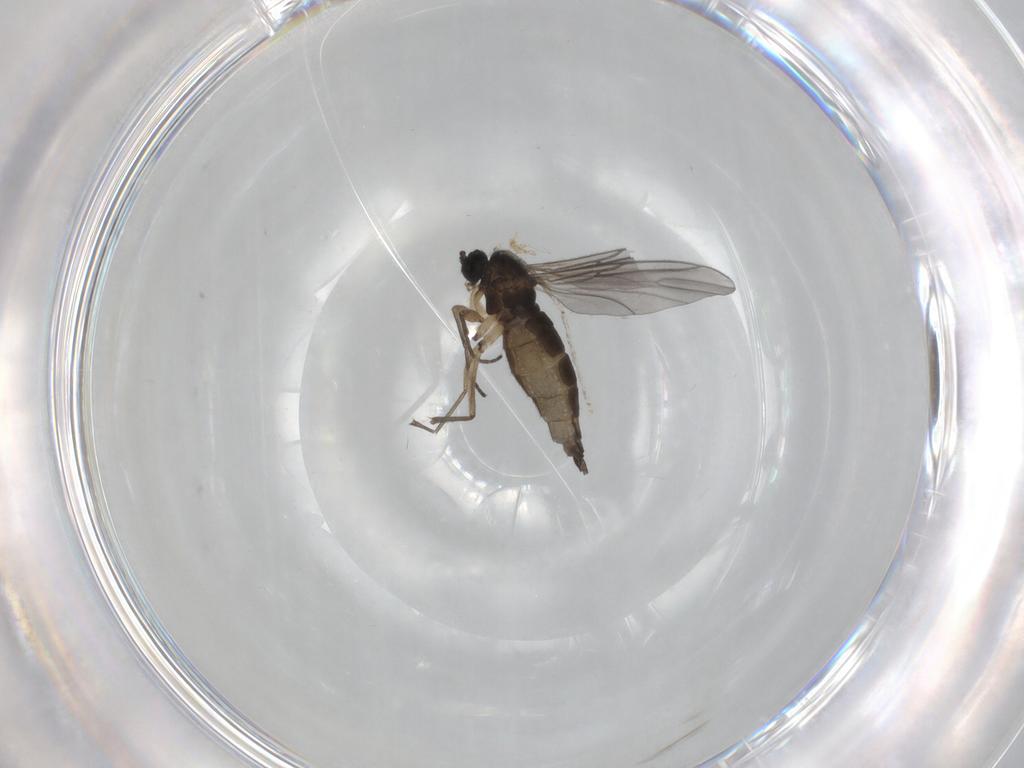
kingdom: Animalia
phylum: Arthropoda
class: Insecta
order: Diptera
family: Sciaridae
